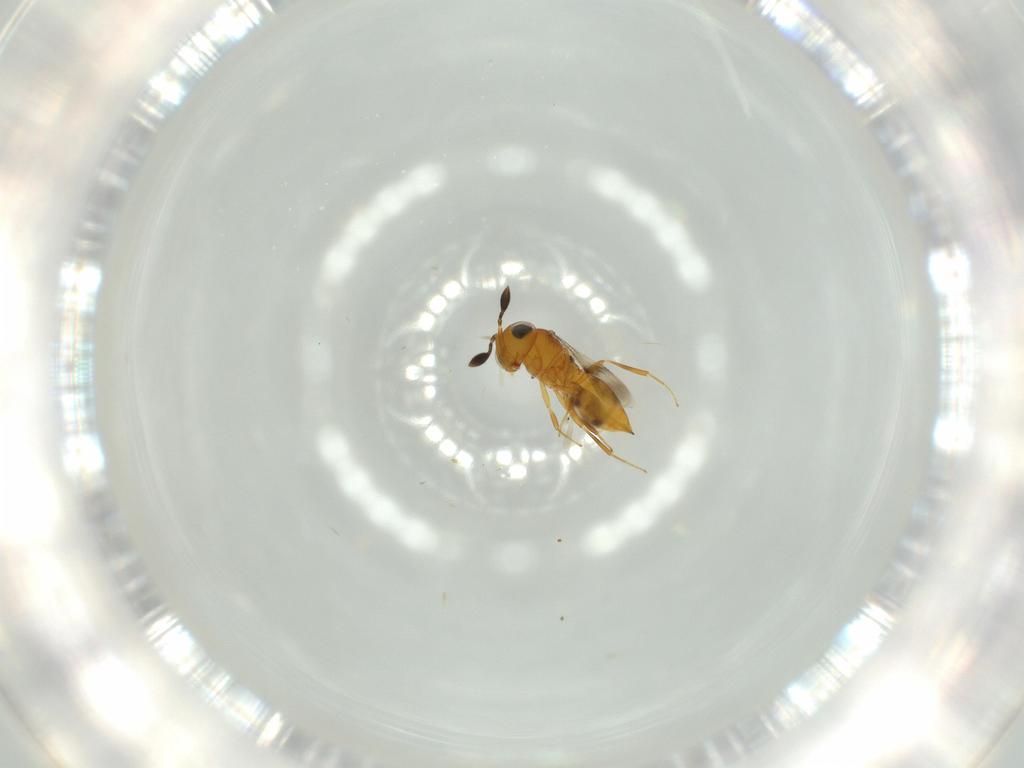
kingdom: Animalia
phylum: Arthropoda
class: Insecta
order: Hymenoptera
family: Scelionidae
